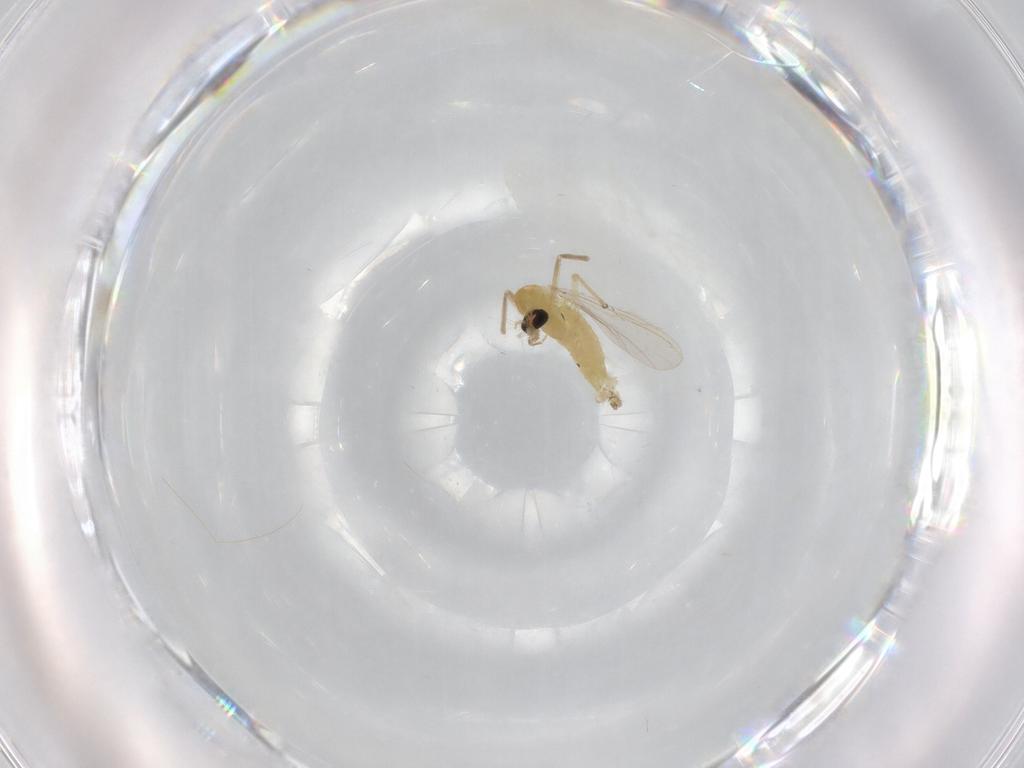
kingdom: Animalia
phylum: Arthropoda
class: Insecta
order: Diptera
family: Chironomidae
